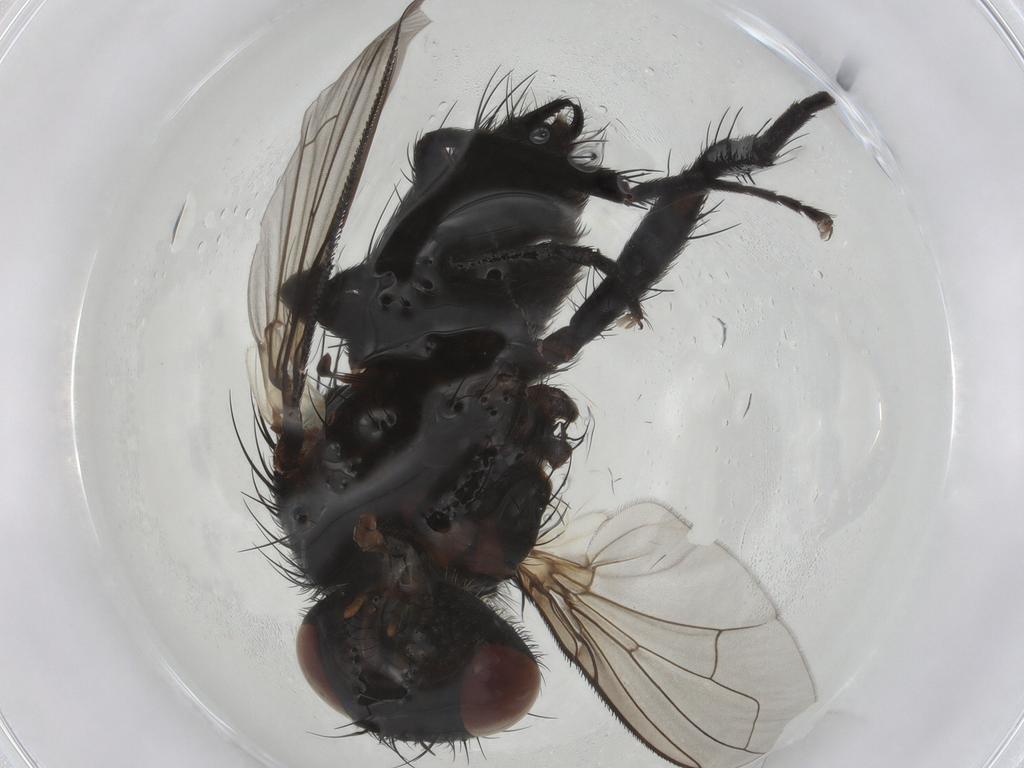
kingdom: Animalia
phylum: Arthropoda
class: Insecta
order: Diptera
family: Tachinidae
